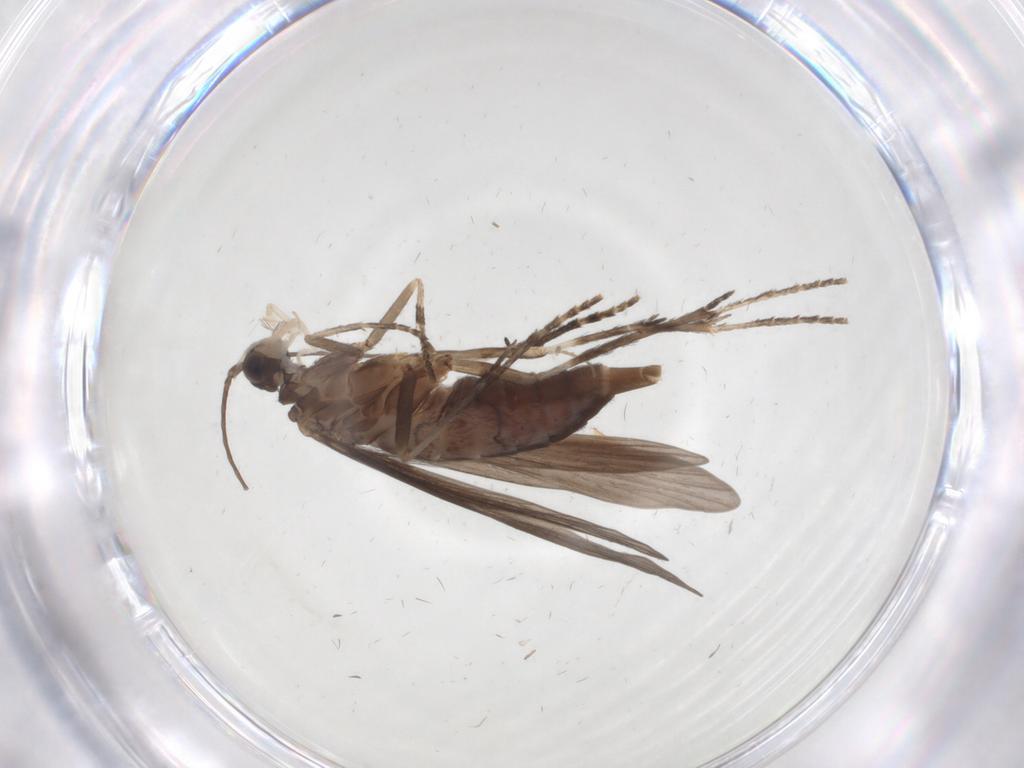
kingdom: Animalia
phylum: Arthropoda
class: Insecta
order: Trichoptera
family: Xiphocentronidae
